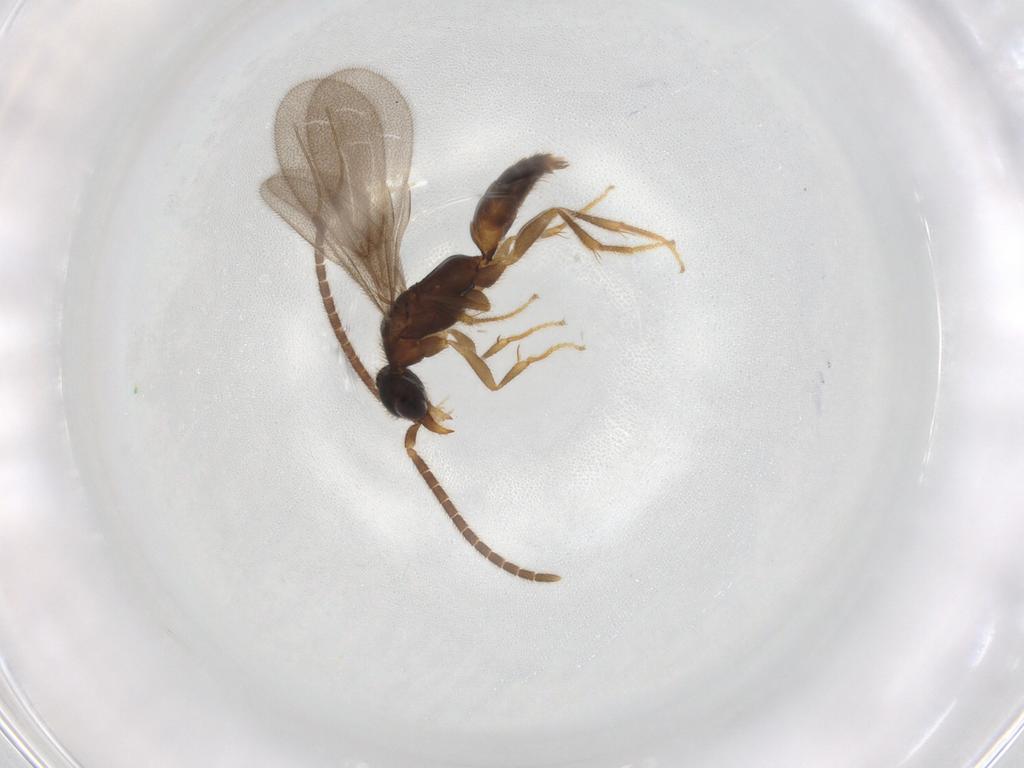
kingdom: Animalia
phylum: Arthropoda
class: Insecta
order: Hymenoptera
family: Bethylidae
